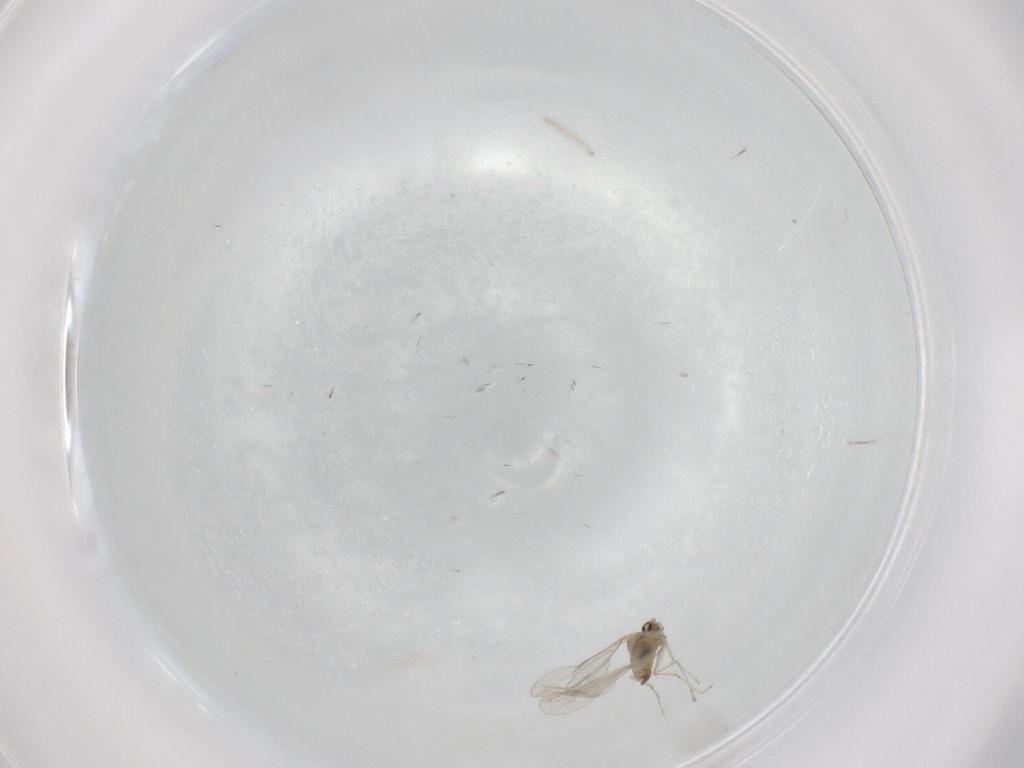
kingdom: Animalia
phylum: Arthropoda
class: Insecta
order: Diptera
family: Cecidomyiidae
